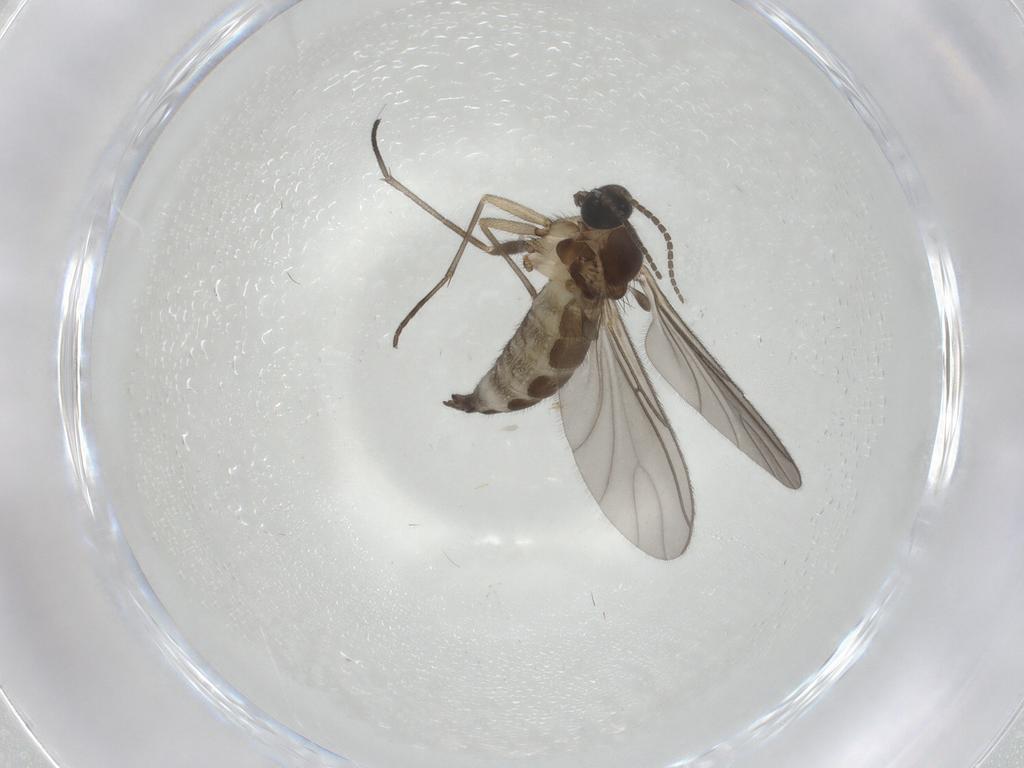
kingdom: Animalia
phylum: Arthropoda
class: Insecta
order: Diptera
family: Sciaridae
